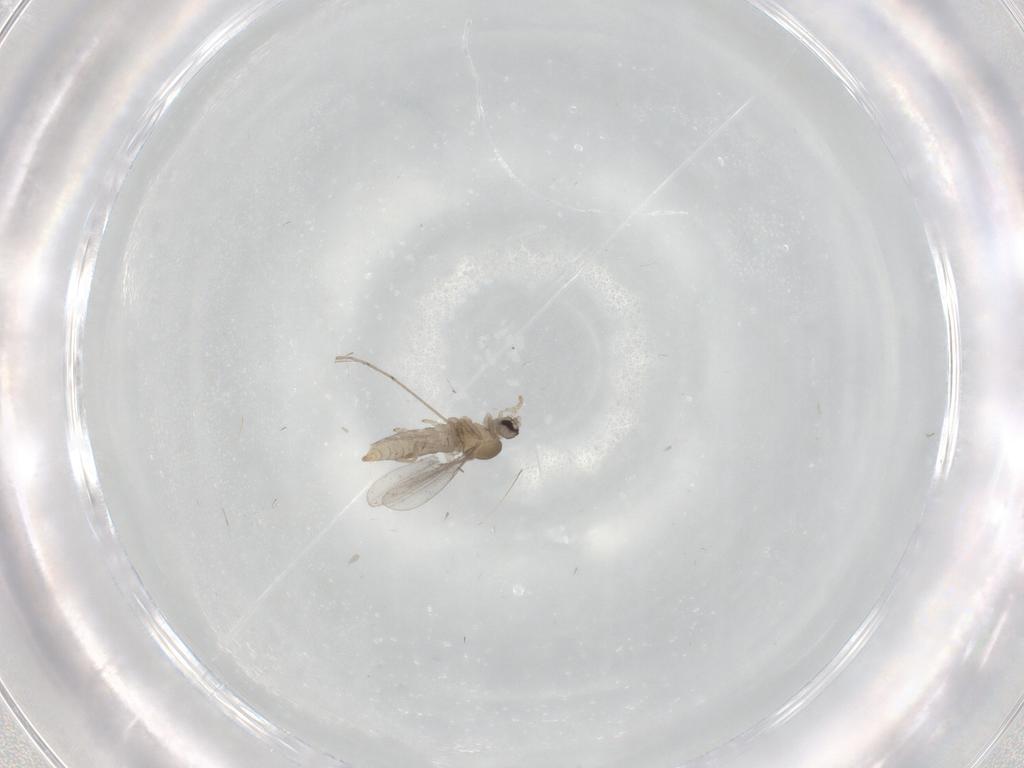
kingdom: Animalia
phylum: Arthropoda
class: Insecta
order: Diptera
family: Cecidomyiidae
